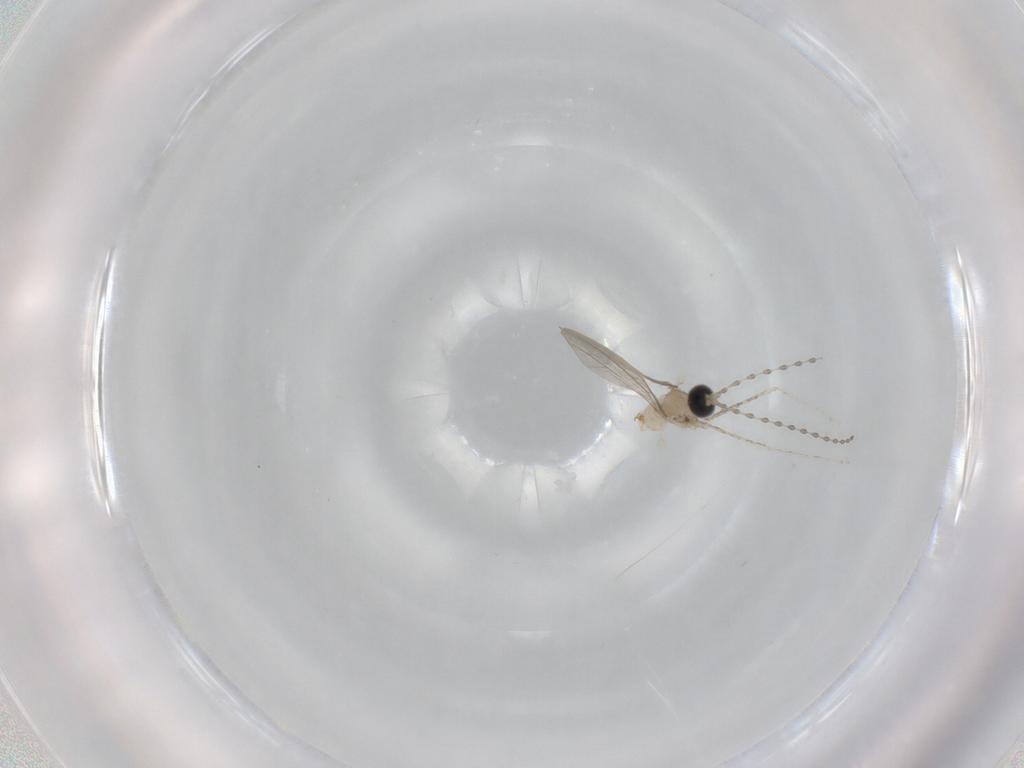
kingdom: Animalia
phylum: Arthropoda
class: Insecta
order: Diptera
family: Cecidomyiidae
